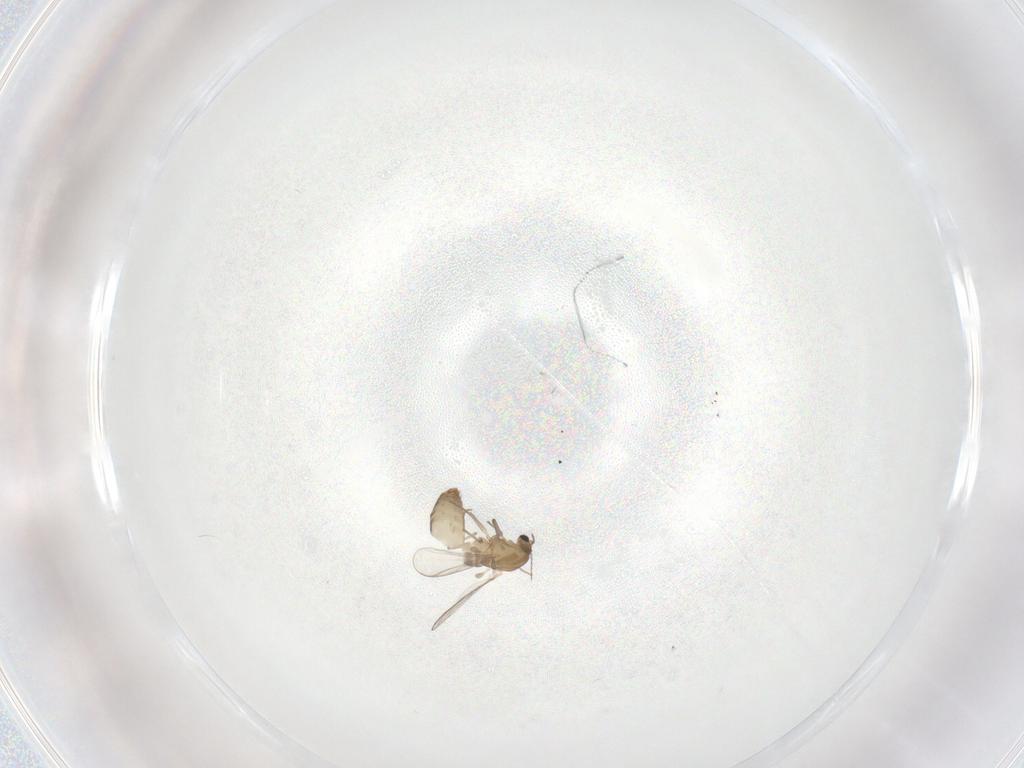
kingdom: Animalia
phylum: Arthropoda
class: Insecta
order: Diptera
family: Chironomidae
